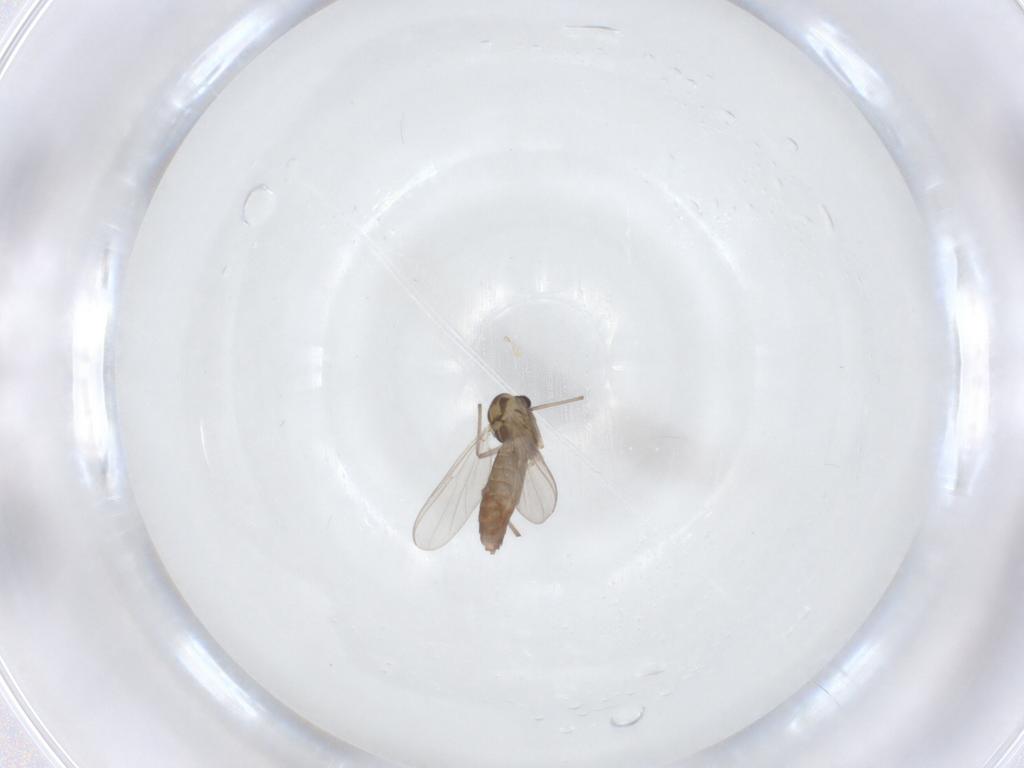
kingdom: Animalia
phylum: Arthropoda
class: Insecta
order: Diptera
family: Chironomidae
